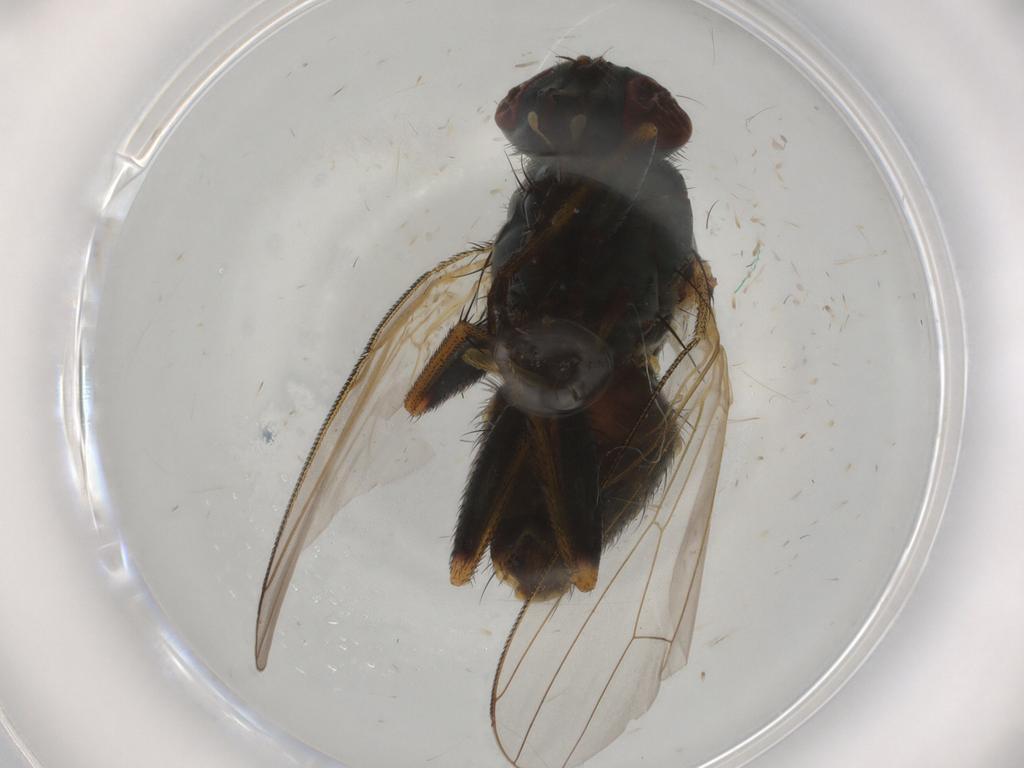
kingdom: Animalia
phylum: Arthropoda
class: Insecta
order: Diptera
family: Muscidae
